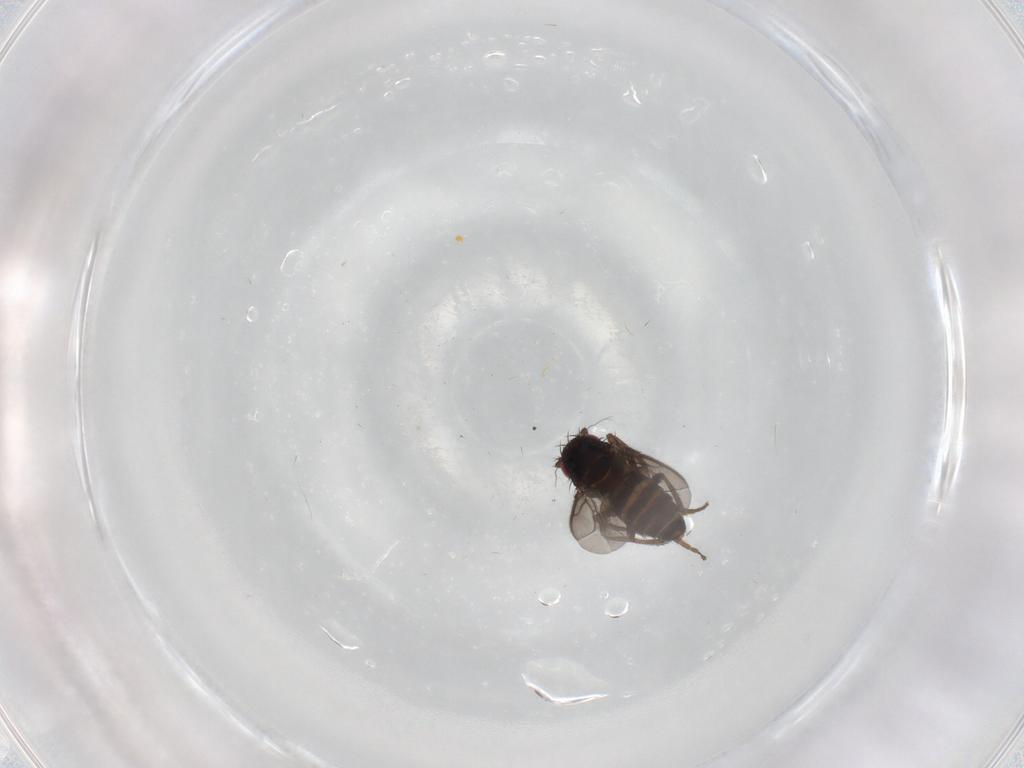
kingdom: Animalia
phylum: Arthropoda
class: Insecta
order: Diptera
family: Sphaeroceridae
